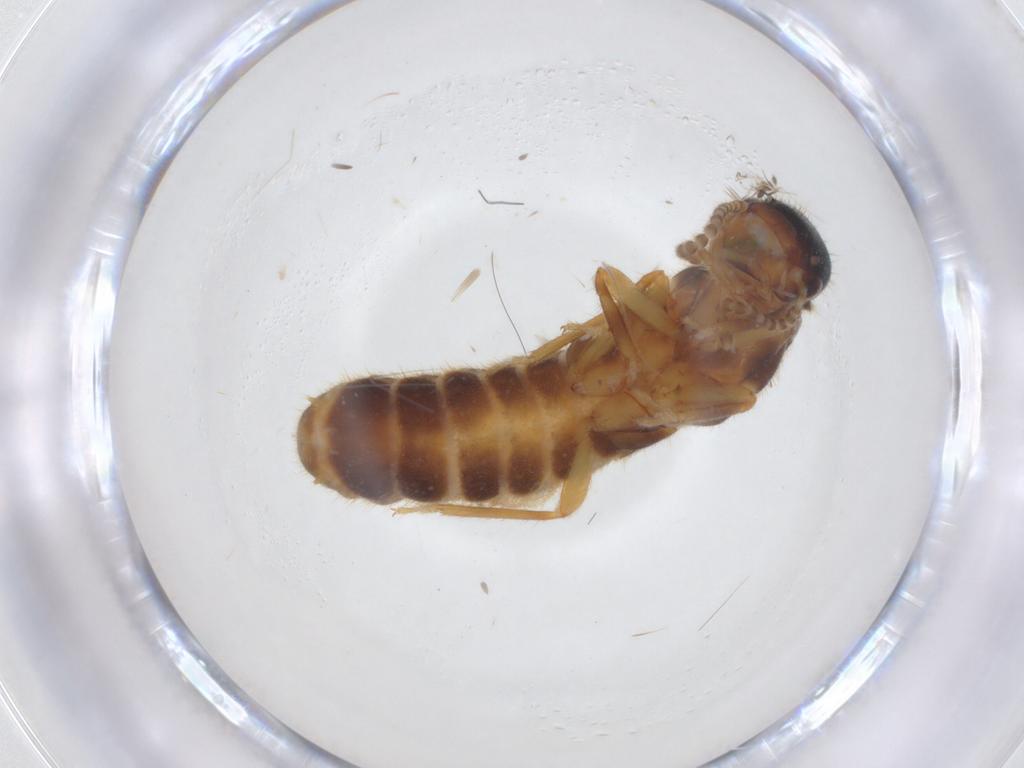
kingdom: Animalia
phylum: Arthropoda
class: Insecta
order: Blattodea
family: Termitidae
